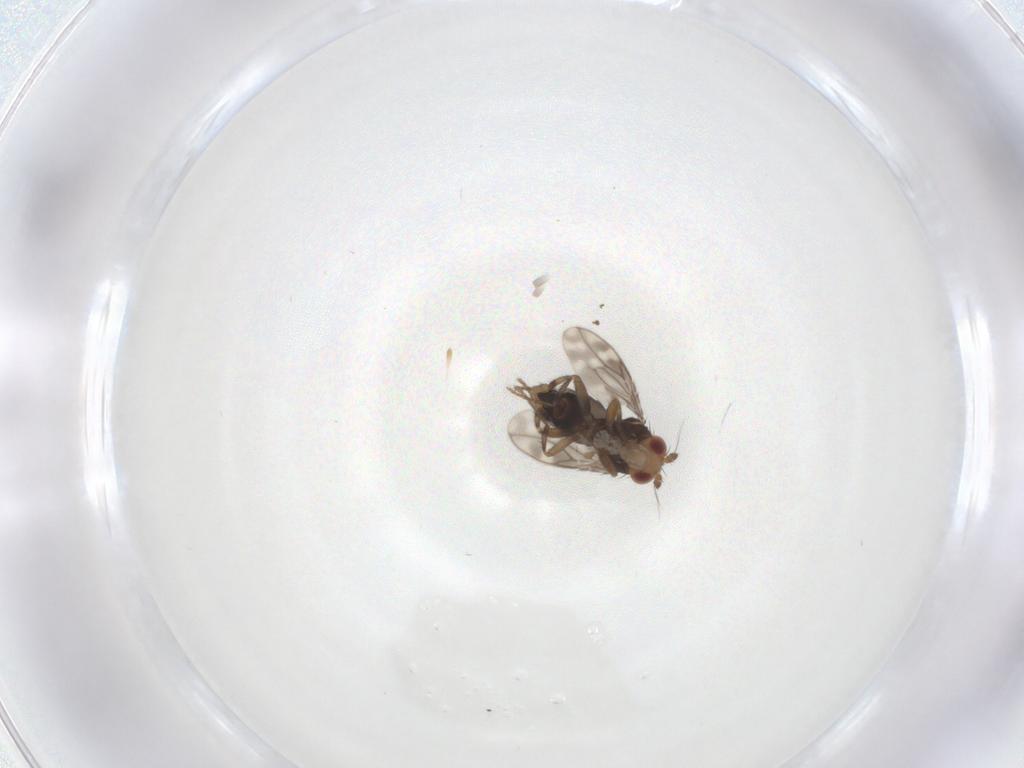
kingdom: Animalia
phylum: Arthropoda
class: Insecta
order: Diptera
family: Sphaeroceridae
